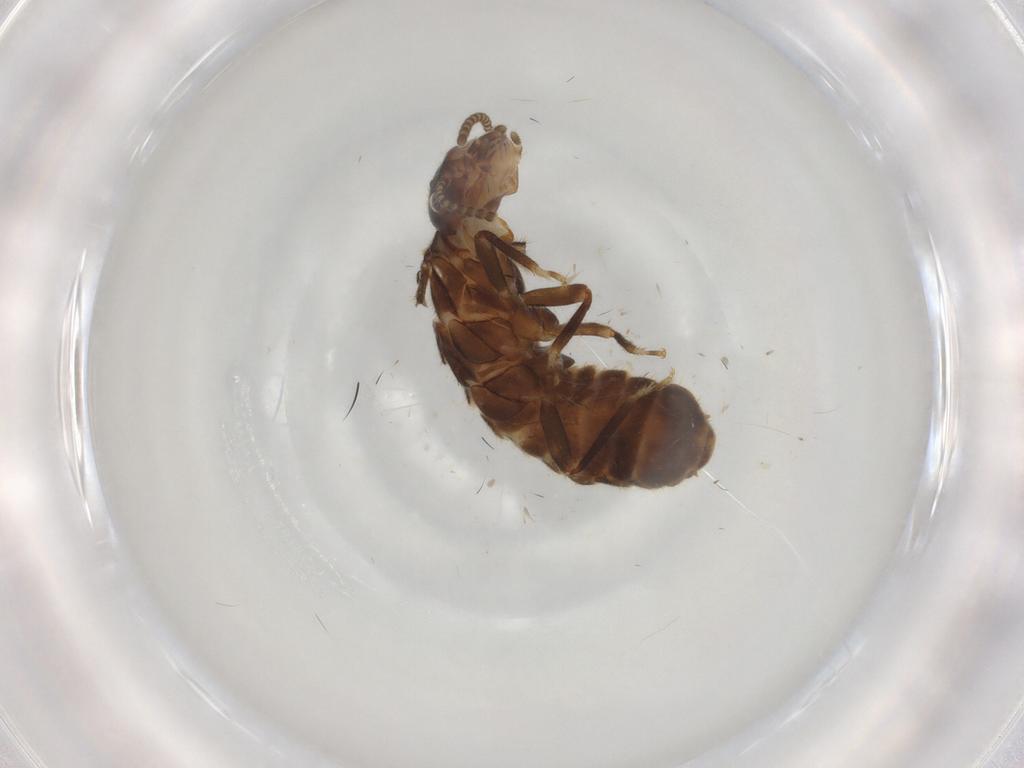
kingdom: Animalia
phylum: Arthropoda
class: Insecta
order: Blattodea
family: Termitidae
